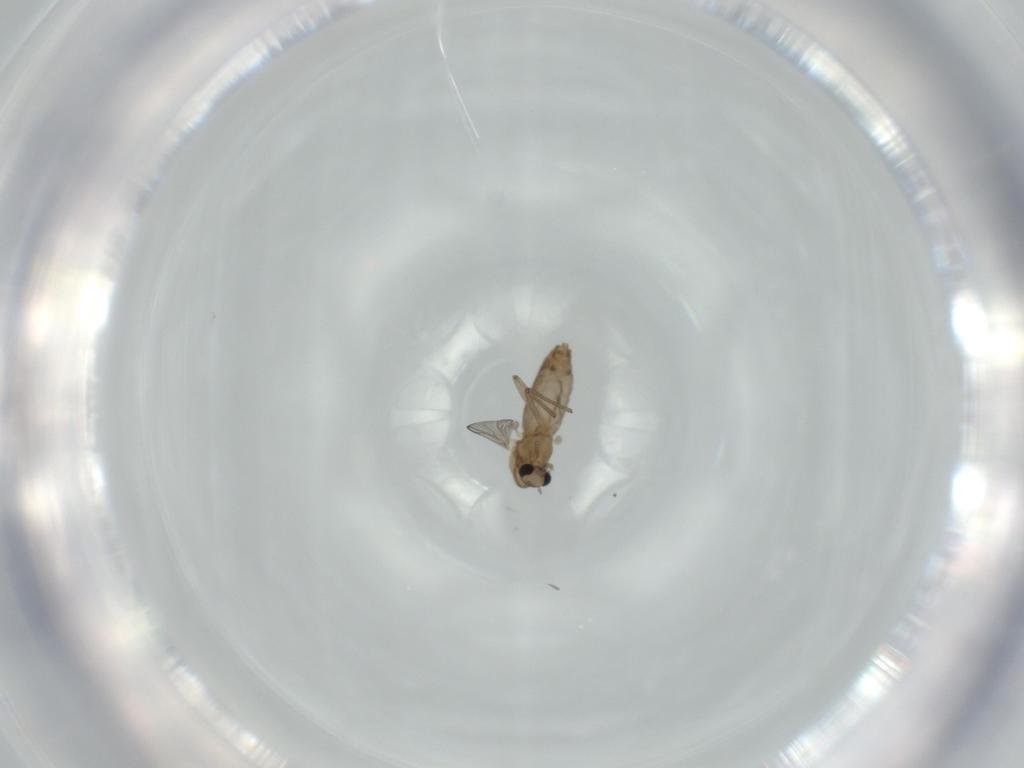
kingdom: Animalia
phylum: Arthropoda
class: Insecta
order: Diptera
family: Chironomidae
